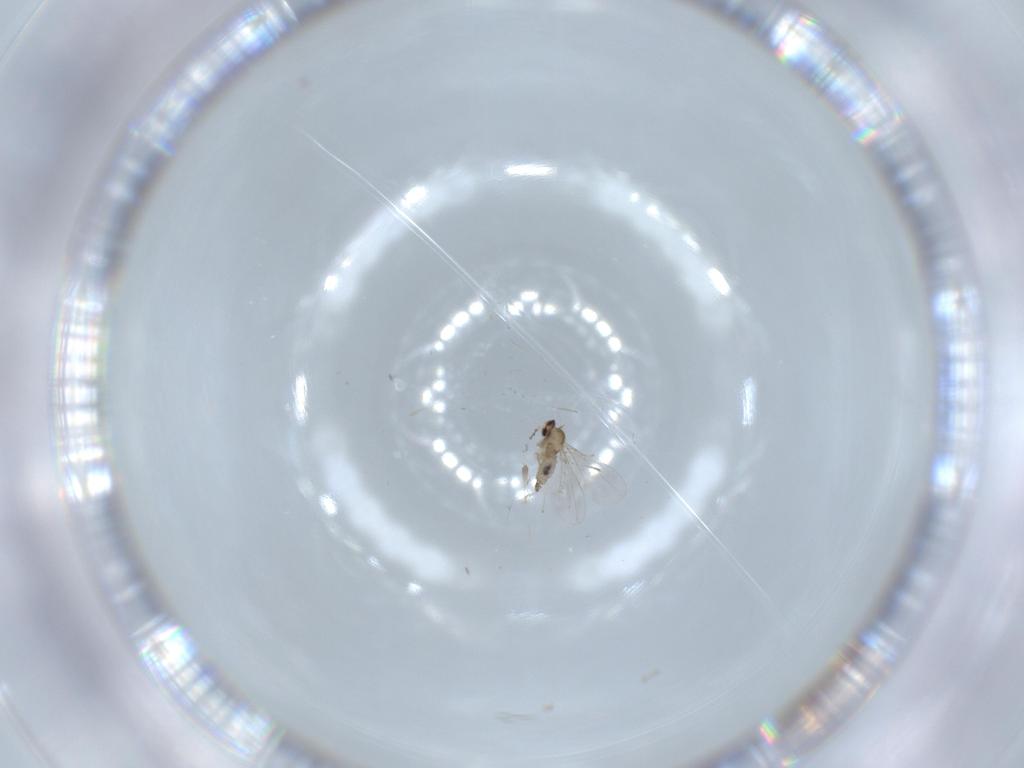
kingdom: Animalia
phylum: Arthropoda
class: Insecta
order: Diptera
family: Cecidomyiidae
